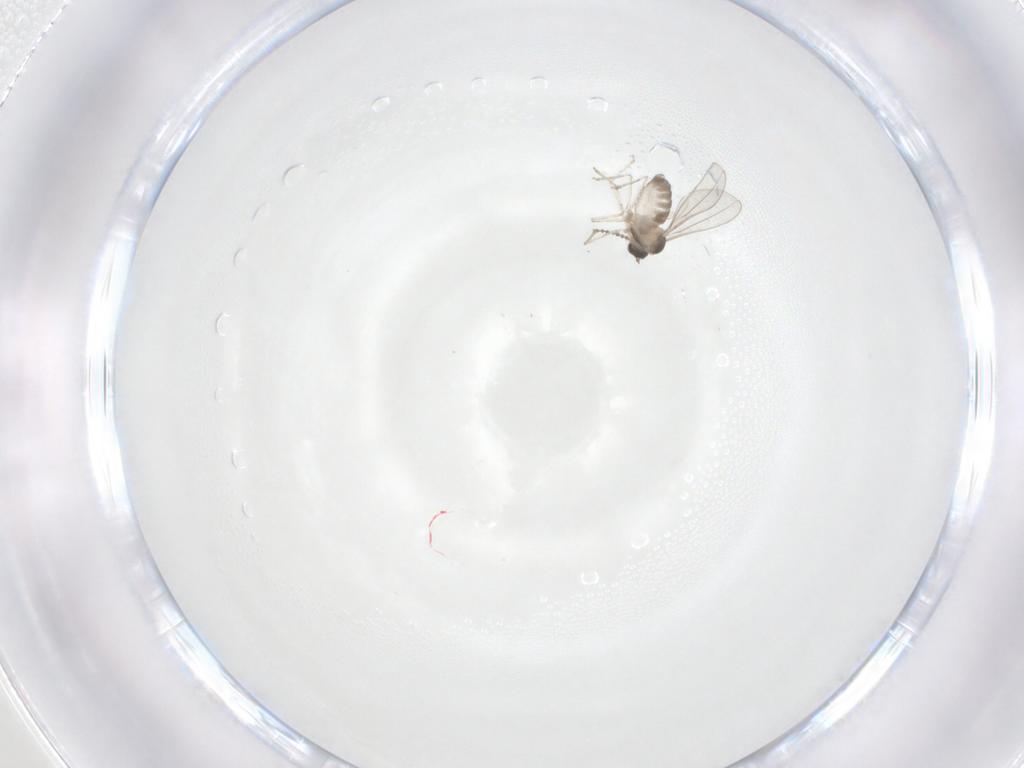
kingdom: Animalia
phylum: Arthropoda
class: Insecta
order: Diptera
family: Cecidomyiidae
